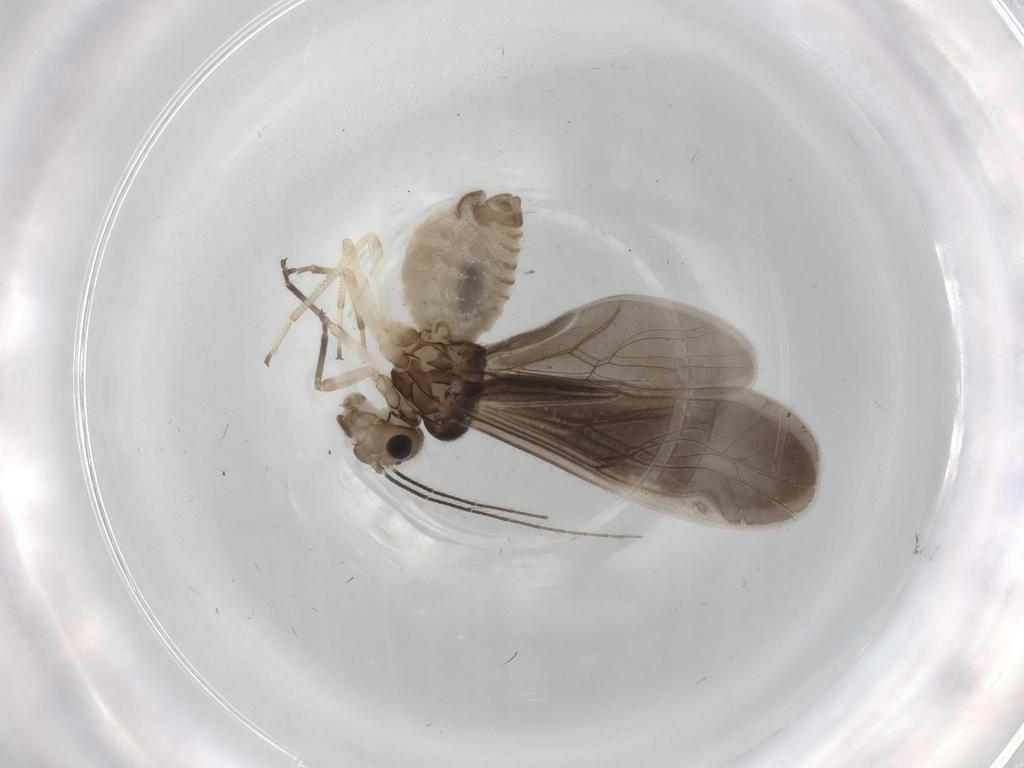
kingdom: Animalia
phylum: Arthropoda
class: Insecta
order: Psocodea
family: Caeciliusidae
